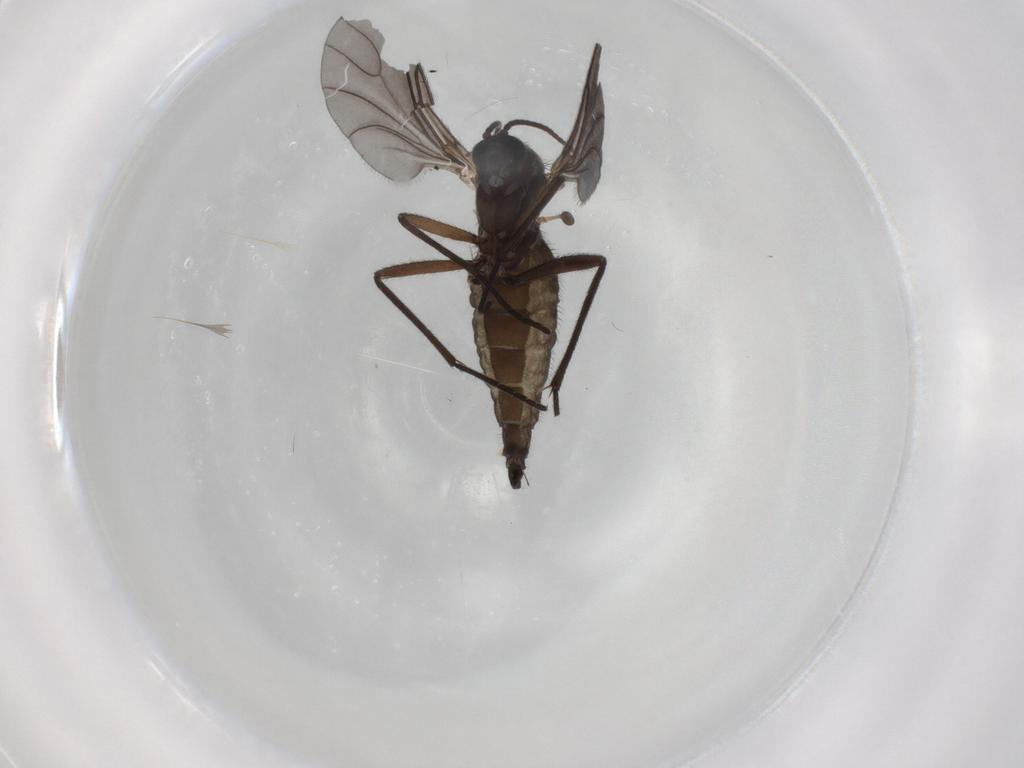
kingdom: Animalia
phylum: Arthropoda
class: Insecta
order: Diptera
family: Sciaridae
